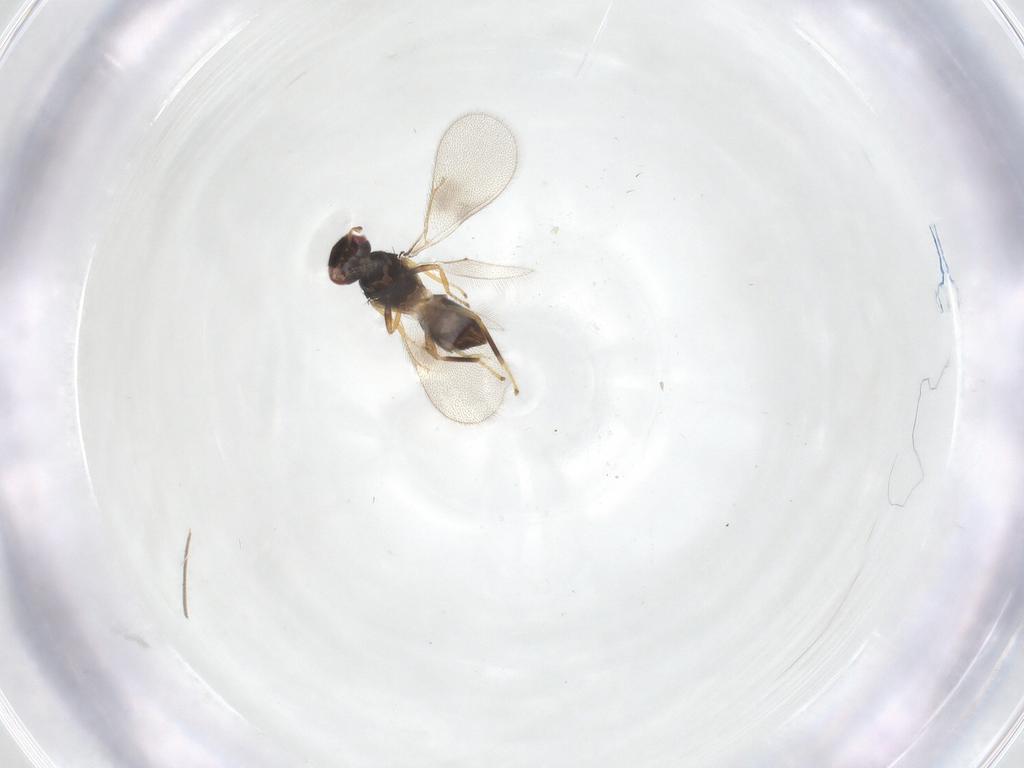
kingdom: Animalia
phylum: Arthropoda
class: Insecta
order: Hymenoptera
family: Eulophidae
